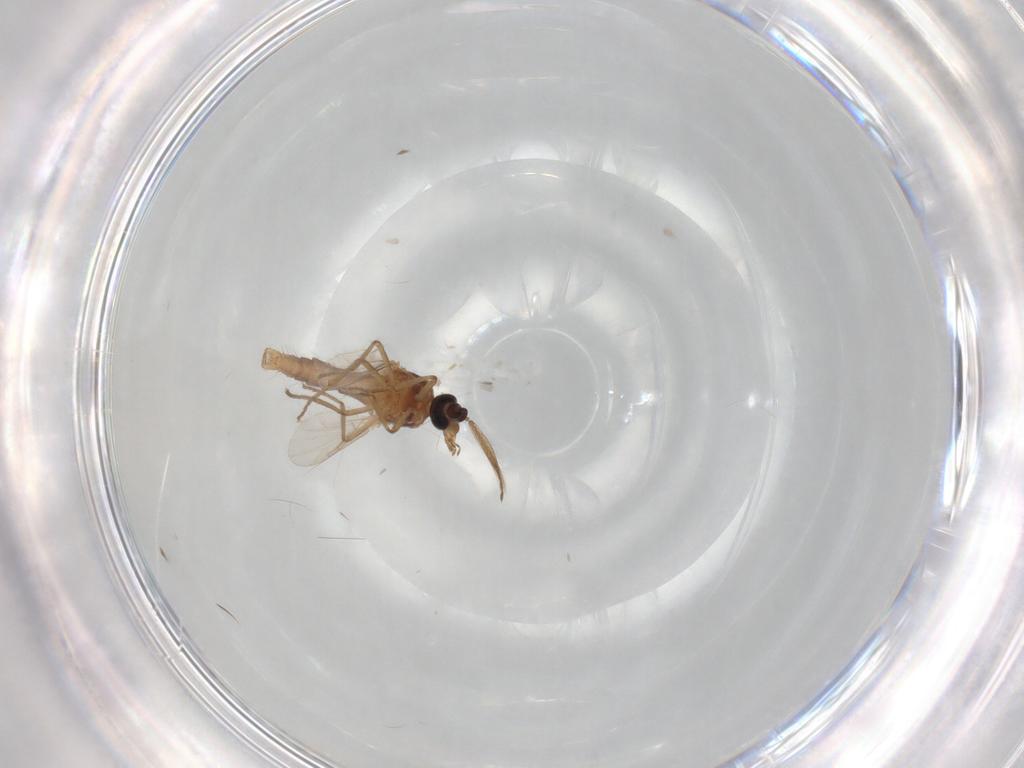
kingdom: Animalia
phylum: Arthropoda
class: Insecta
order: Diptera
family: Ceratopogonidae
